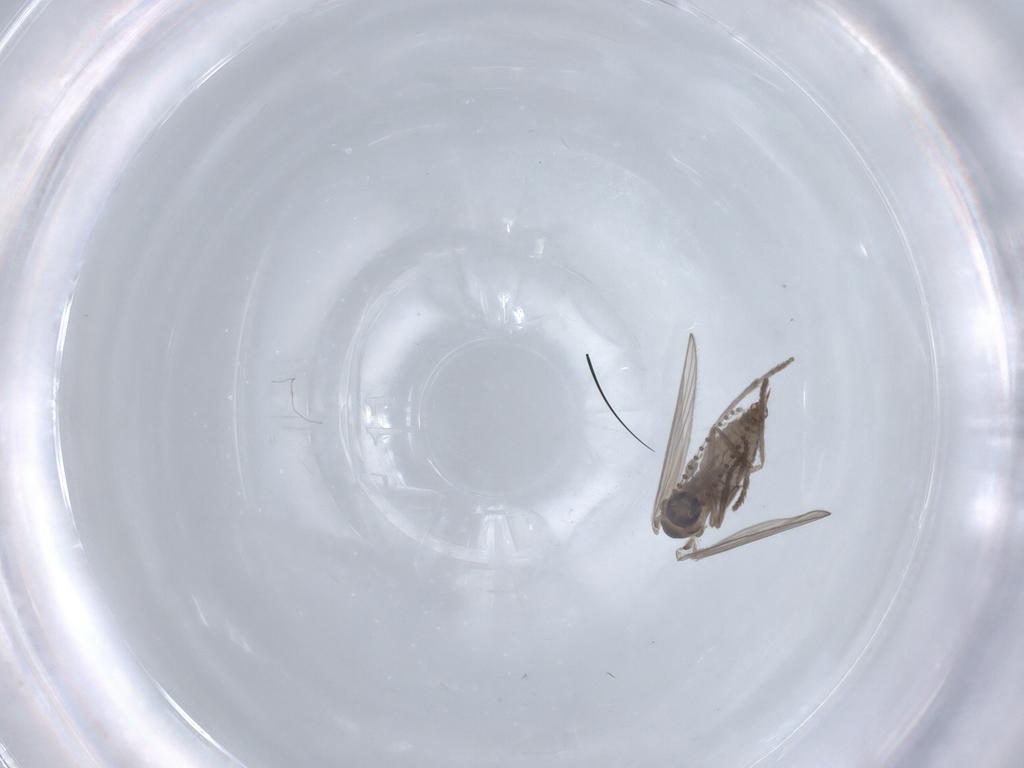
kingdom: Animalia
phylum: Arthropoda
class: Insecta
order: Diptera
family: Psychodidae
